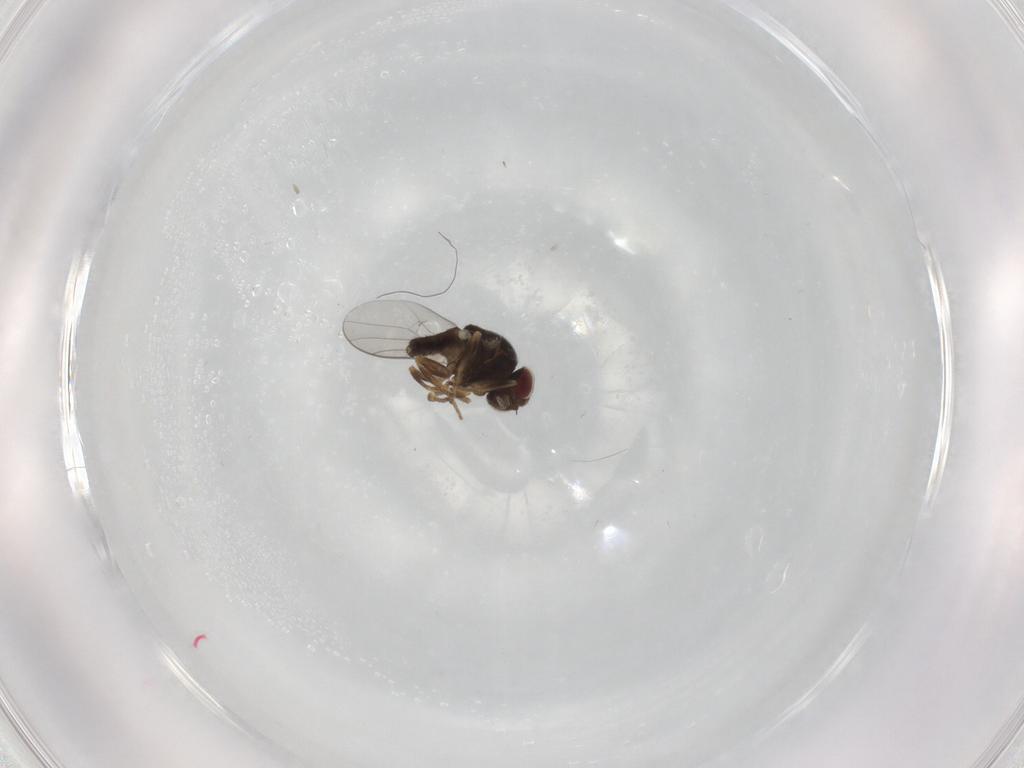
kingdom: Animalia
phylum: Arthropoda
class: Insecta
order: Diptera
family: Chloropidae
